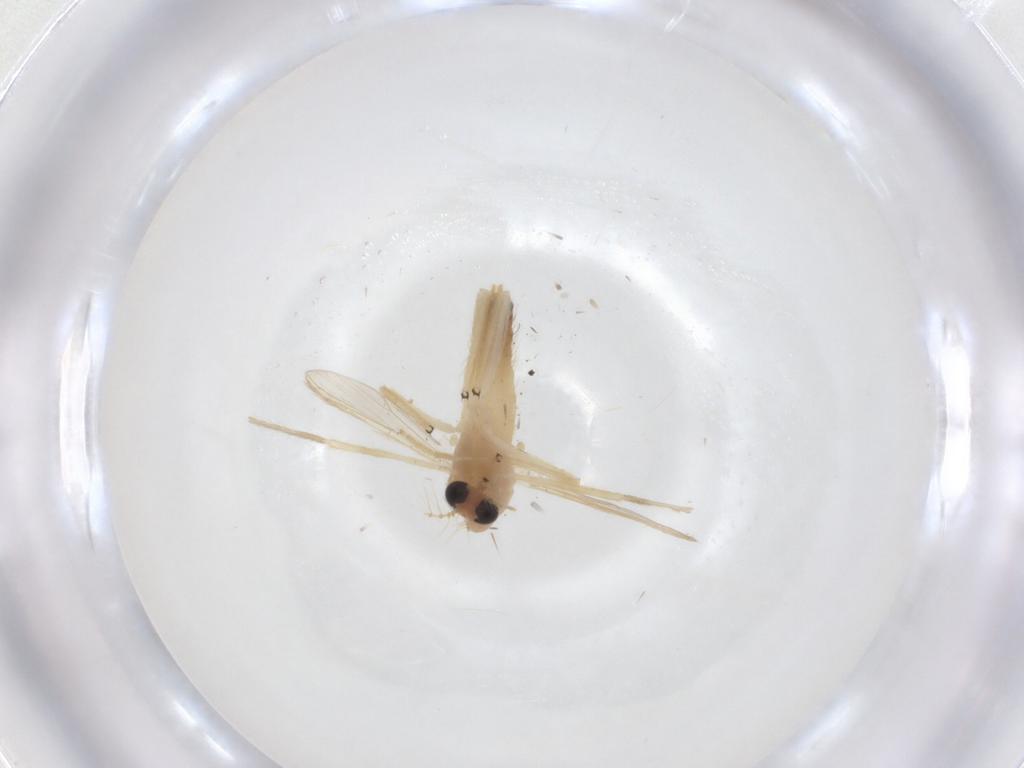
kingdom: Animalia
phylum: Arthropoda
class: Insecta
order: Diptera
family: Chironomidae
